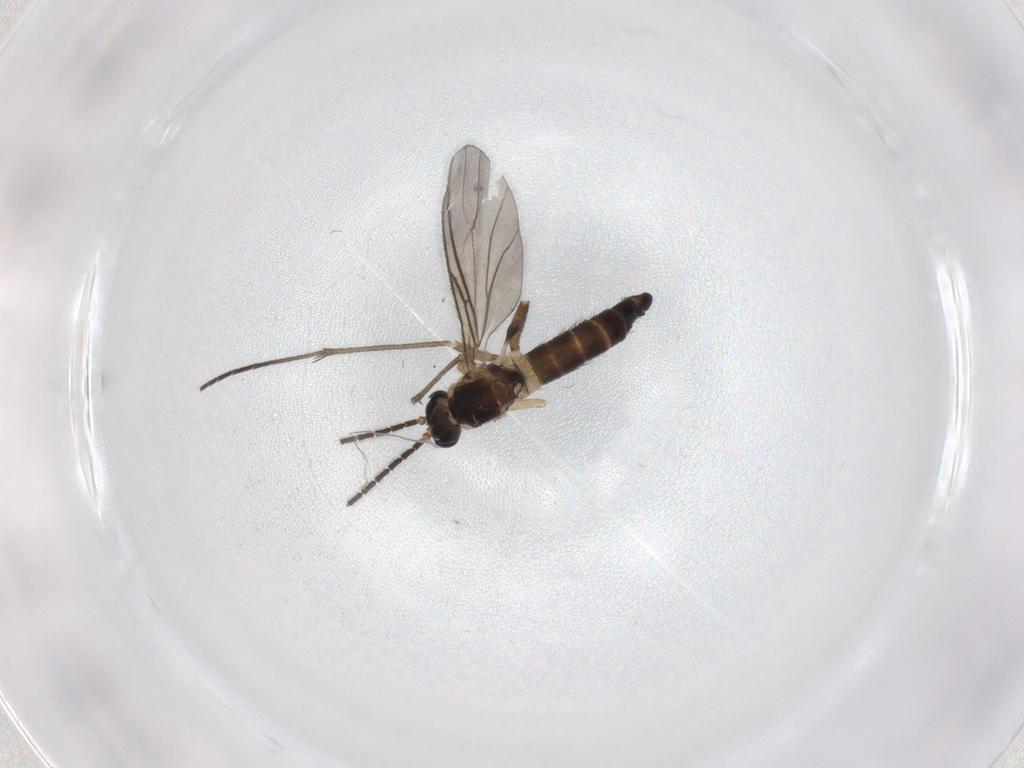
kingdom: Animalia
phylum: Arthropoda
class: Insecta
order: Diptera
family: Sciaridae
